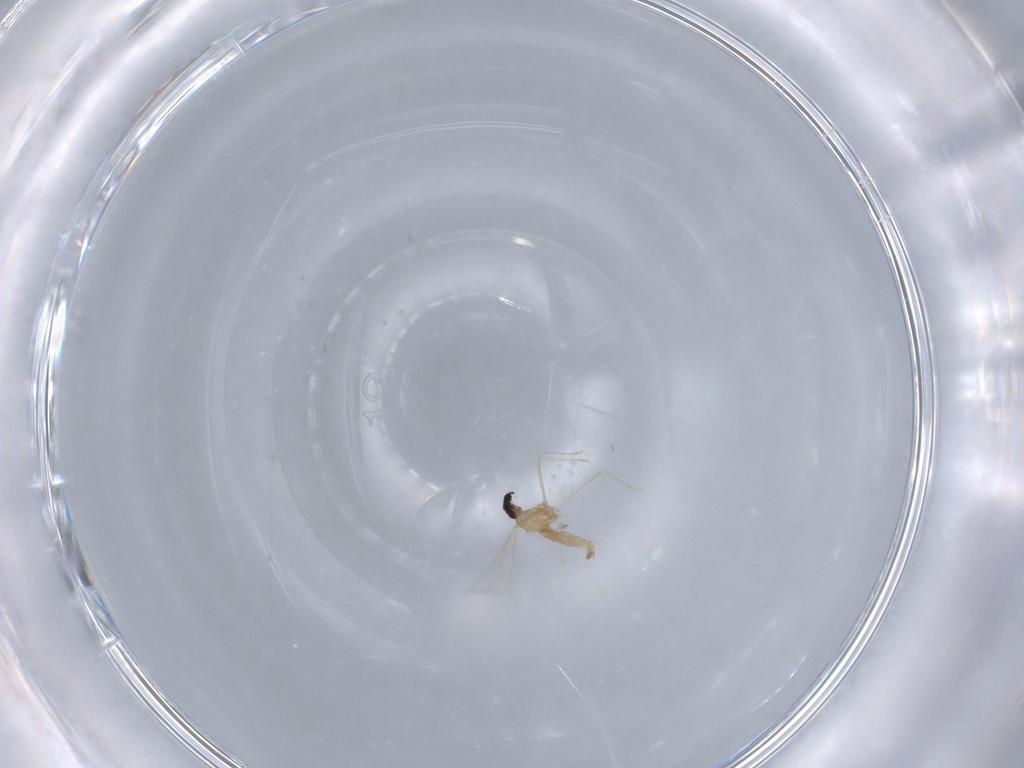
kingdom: Animalia
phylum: Arthropoda
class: Insecta
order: Diptera
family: Cecidomyiidae
